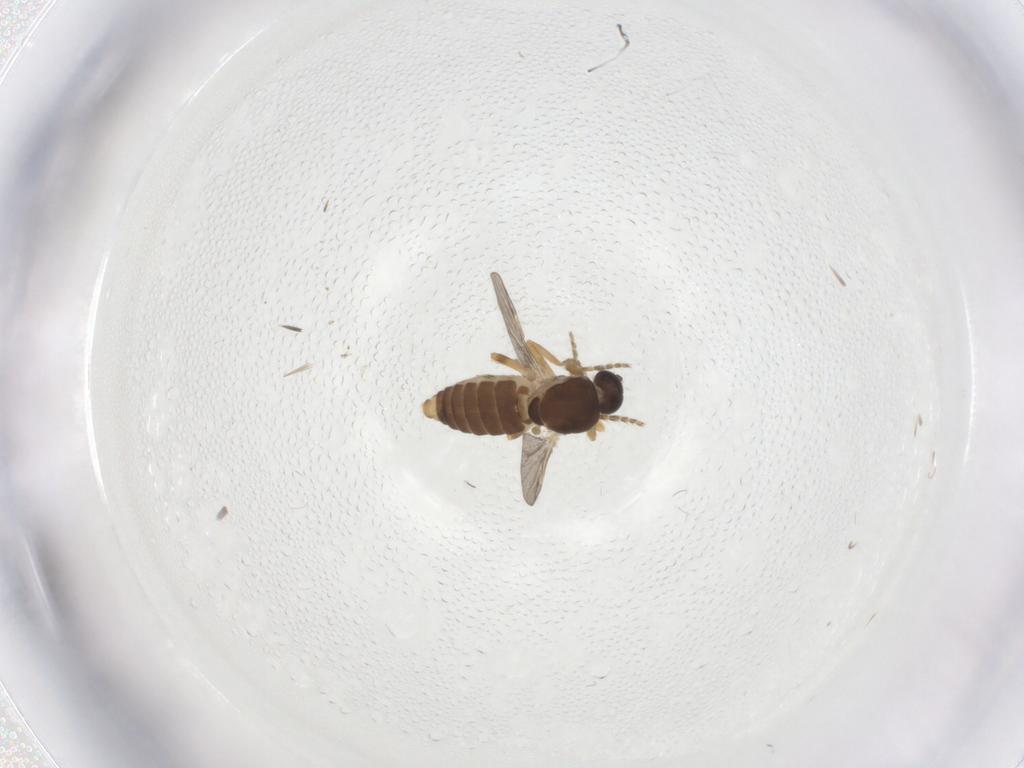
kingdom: Animalia
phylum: Arthropoda
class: Insecta
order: Diptera
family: Ceratopogonidae
